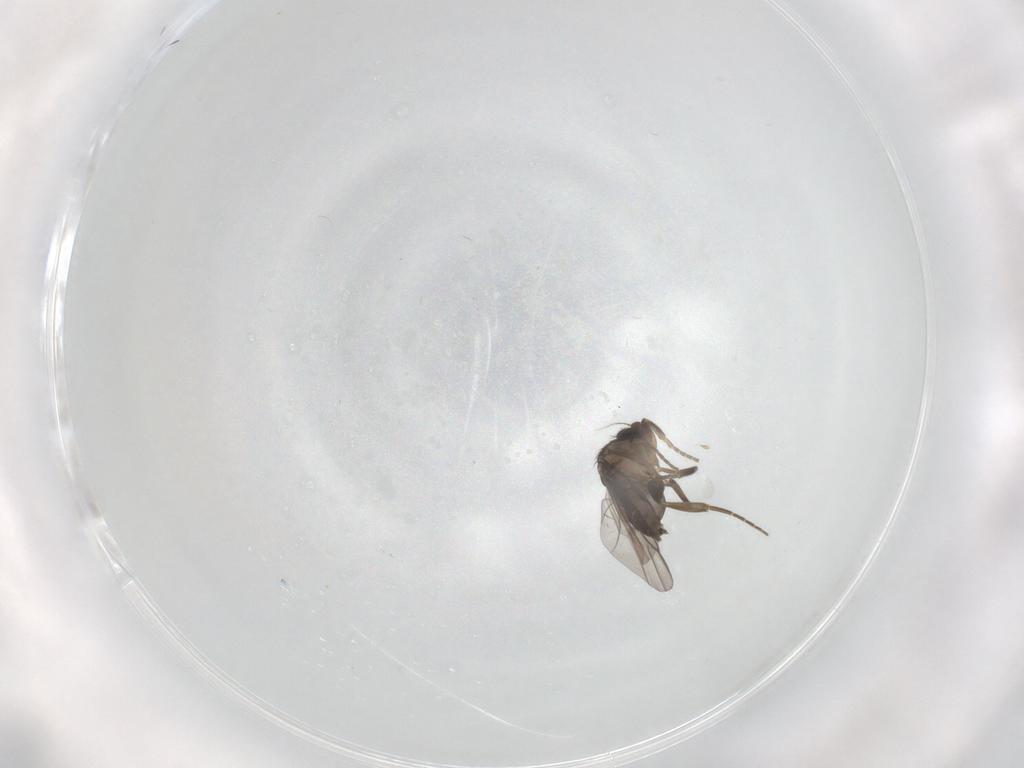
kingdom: Animalia
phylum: Arthropoda
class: Insecta
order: Diptera
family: Phoridae
